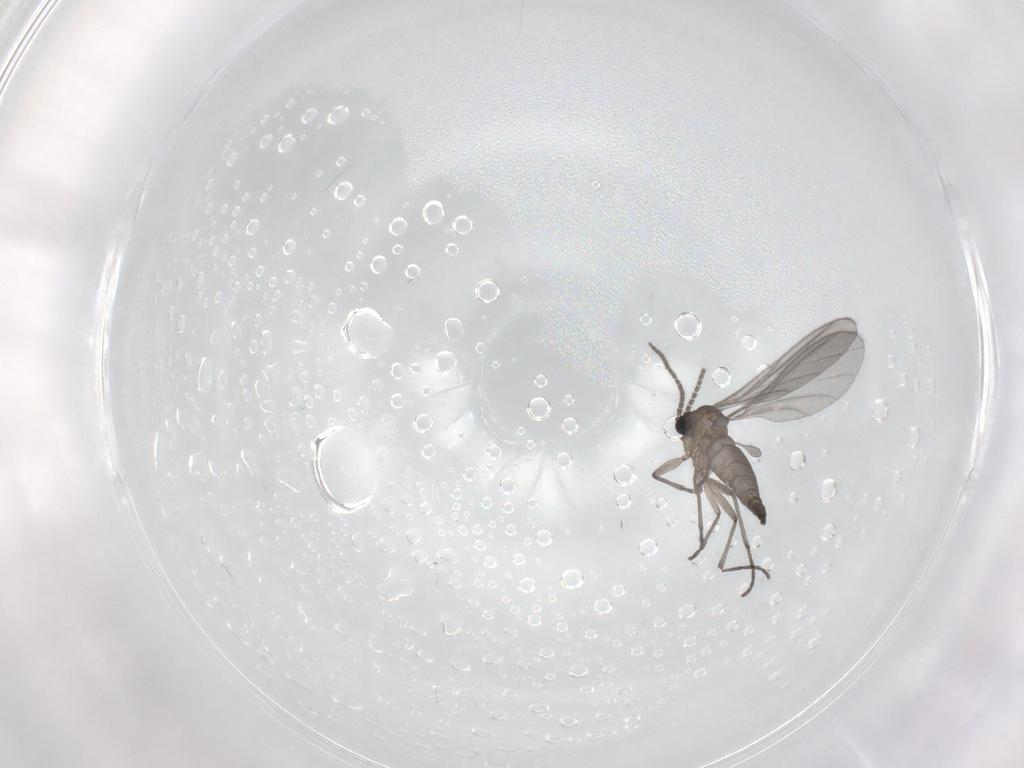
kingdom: Animalia
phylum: Arthropoda
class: Insecta
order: Diptera
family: Sciaridae
